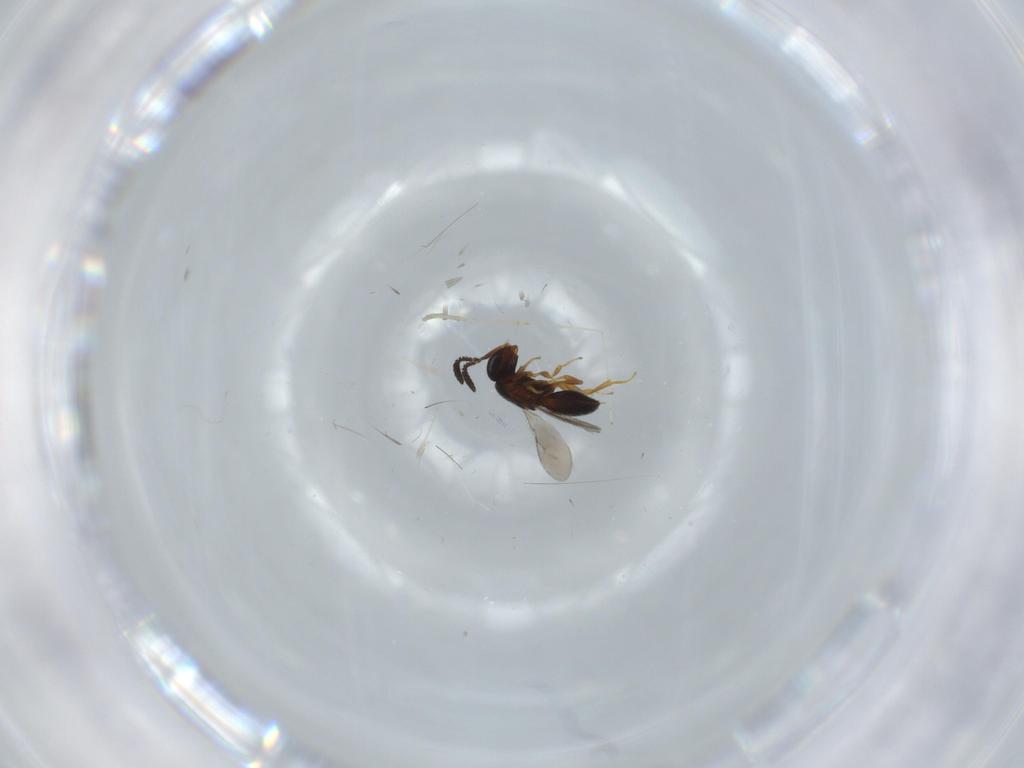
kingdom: Animalia
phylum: Arthropoda
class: Insecta
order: Hymenoptera
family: Scelionidae
